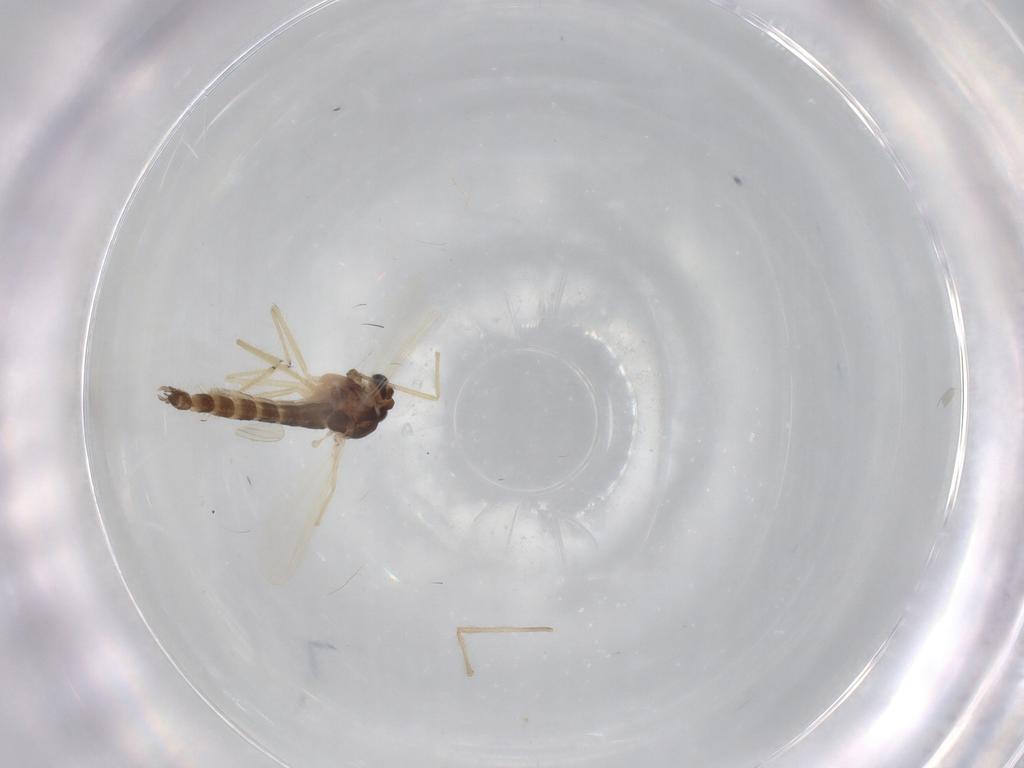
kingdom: Animalia
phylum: Arthropoda
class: Insecta
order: Diptera
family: Chironomidae
